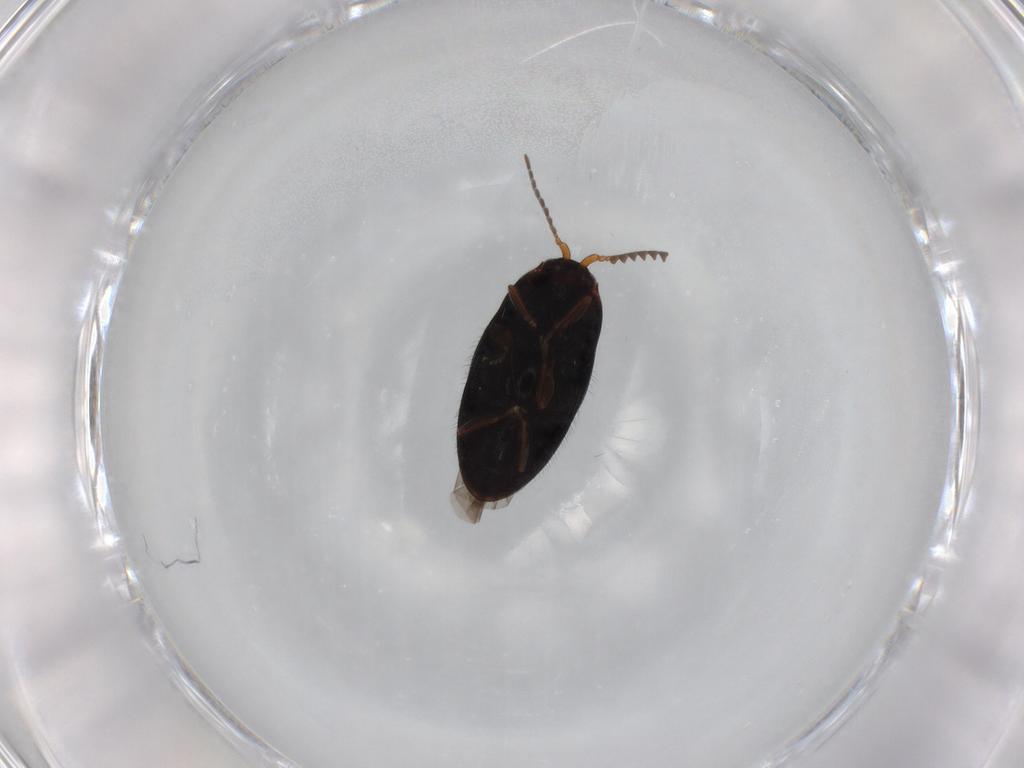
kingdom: Animalia
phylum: Arthropoda
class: Insecta
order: Coleoptera
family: Elateridae
